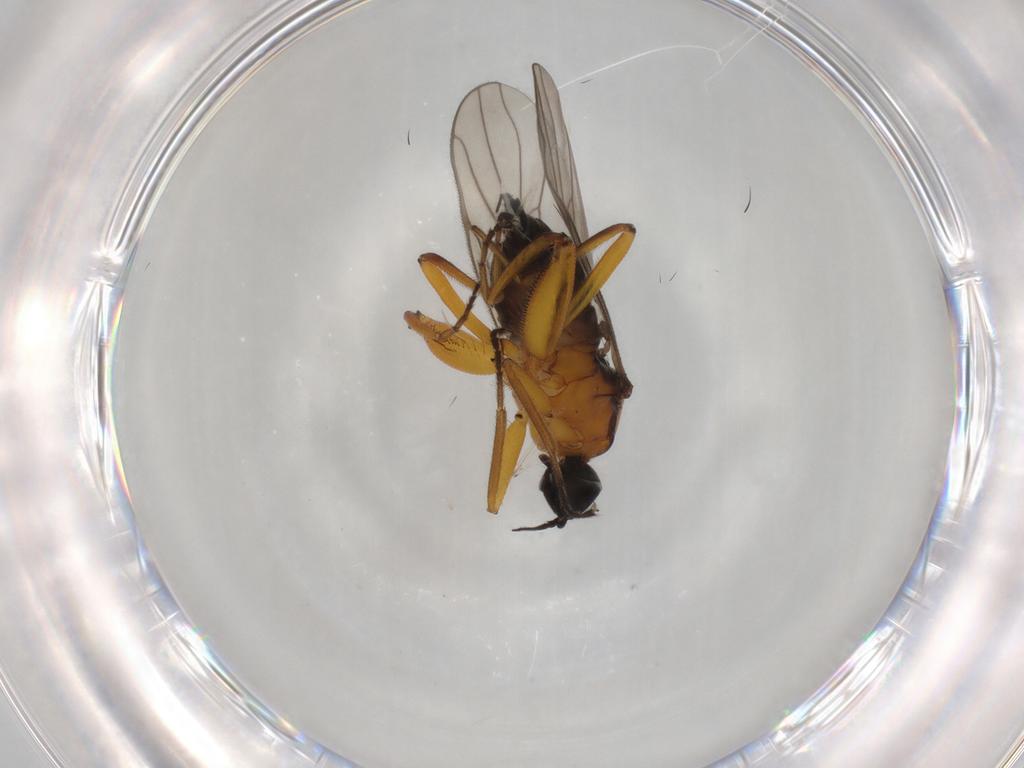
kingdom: Animalia
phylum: Arthropoda
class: Insecta
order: Diptera
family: Hybotidae
